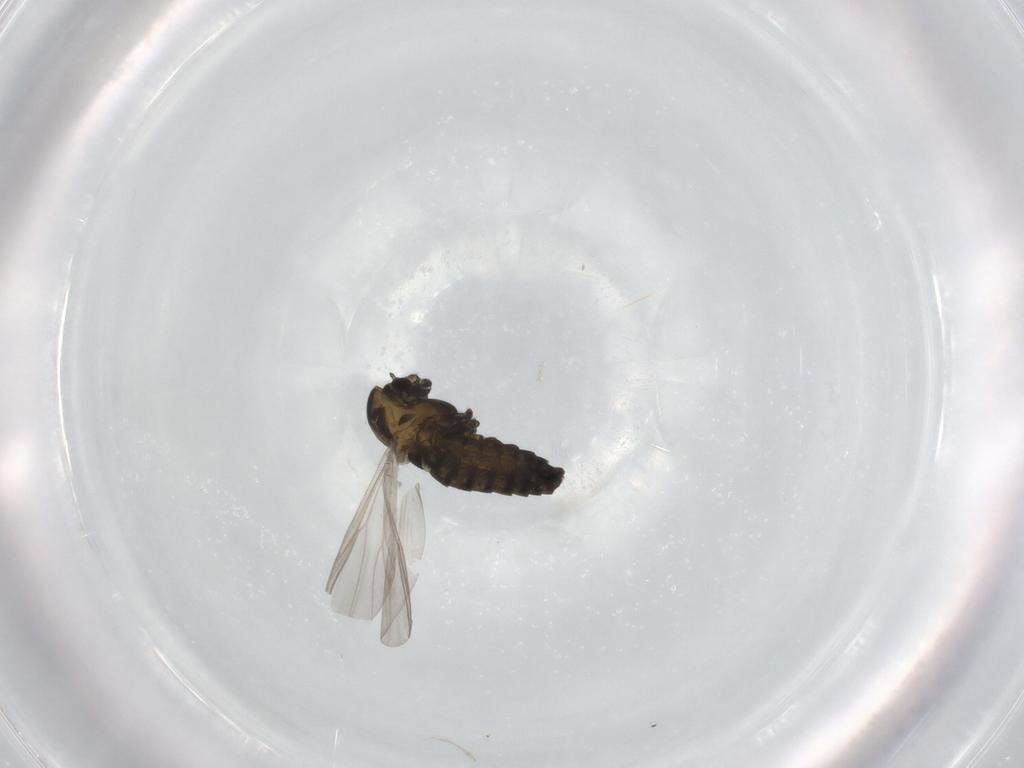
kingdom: Animalia
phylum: Arthropoda
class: Insecta
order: Diptera
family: Chironomidae
